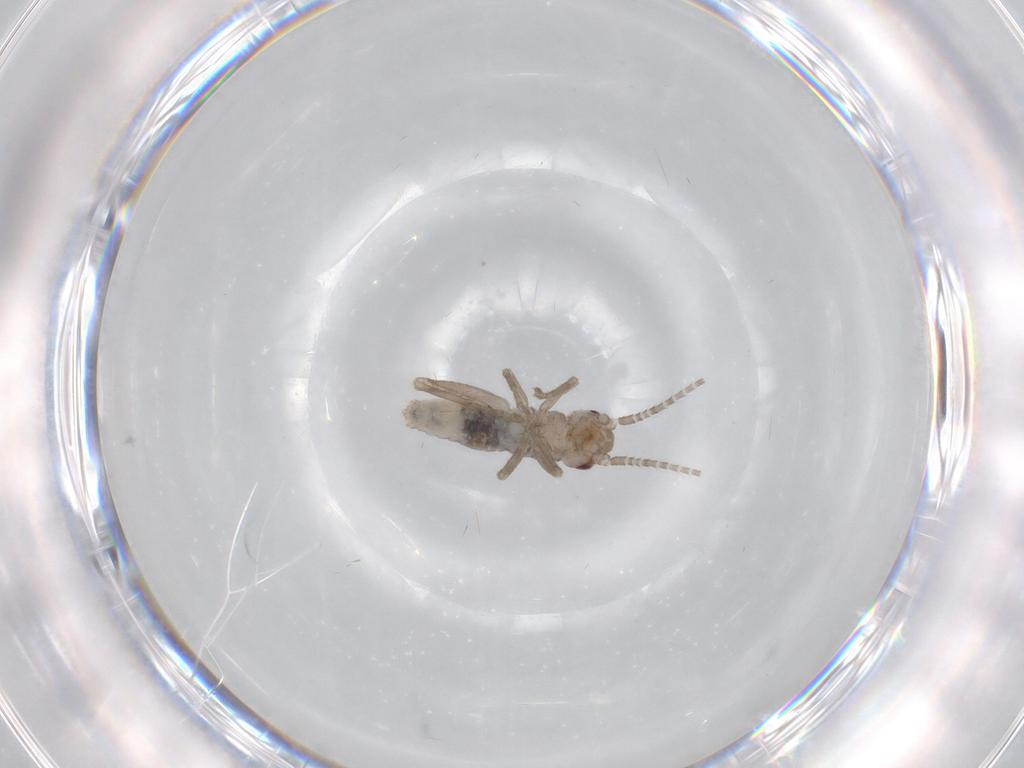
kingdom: Animalia
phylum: Arthropoda
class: Insecta
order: Orthoptera
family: Mogoplistidae
